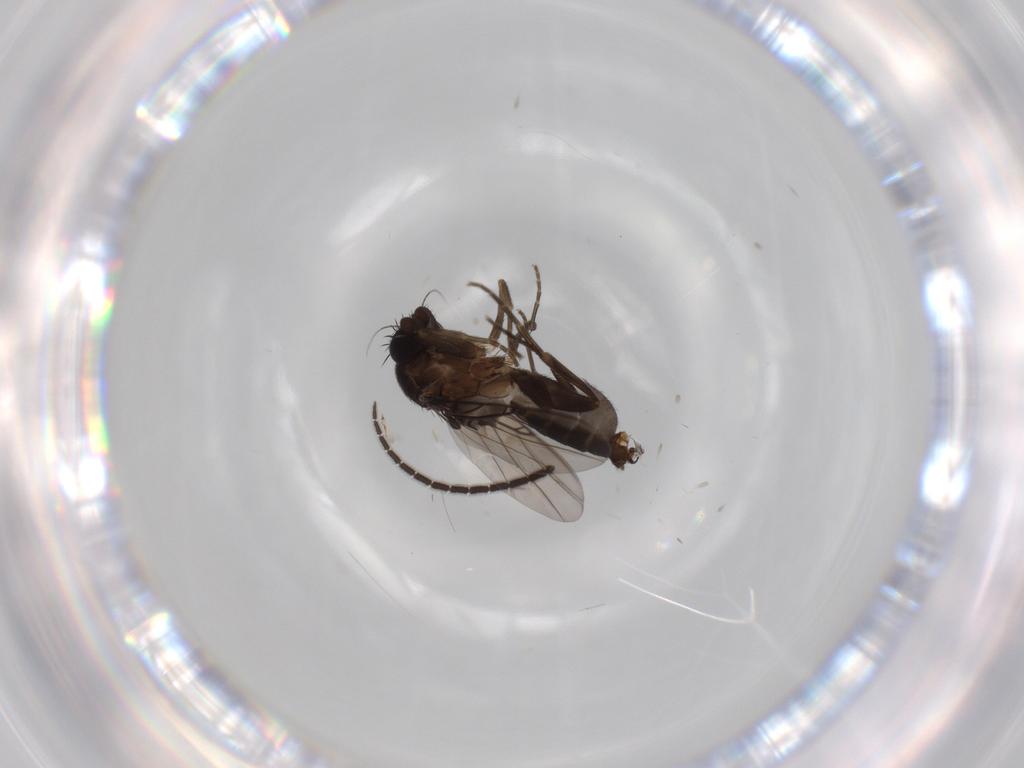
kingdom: Animalia
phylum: Arthropoda
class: Insecta
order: Diptera
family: Phoridae
